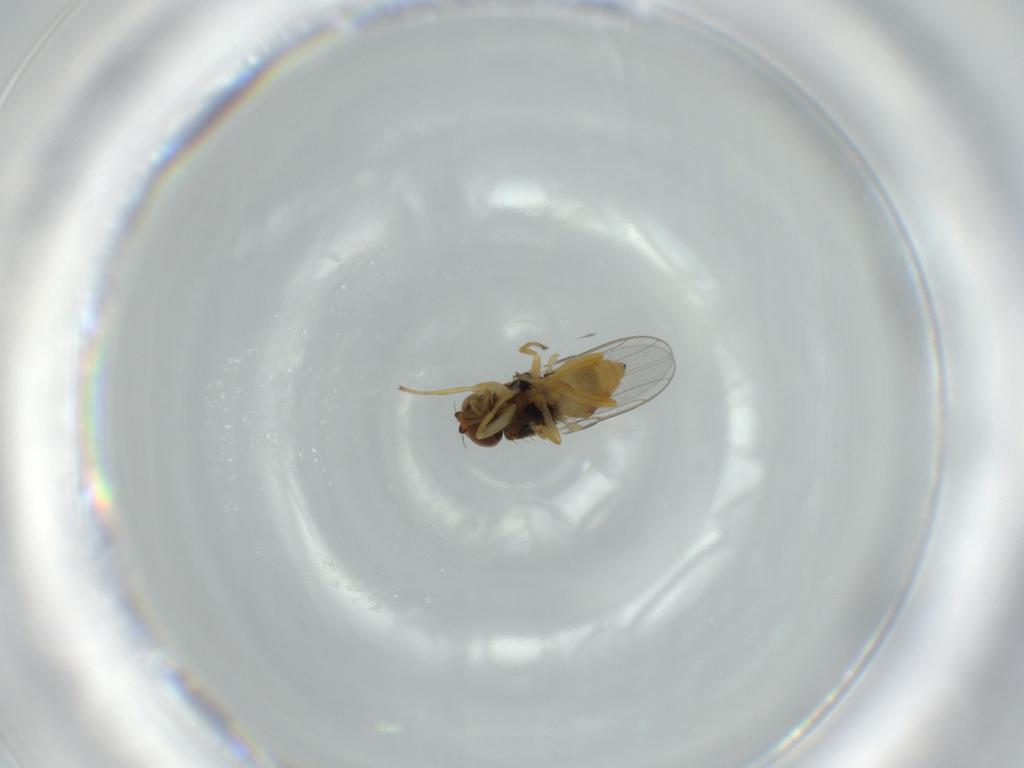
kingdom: Animalia
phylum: Arthropoda
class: Insecta
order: Diptera
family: Chloropidae
